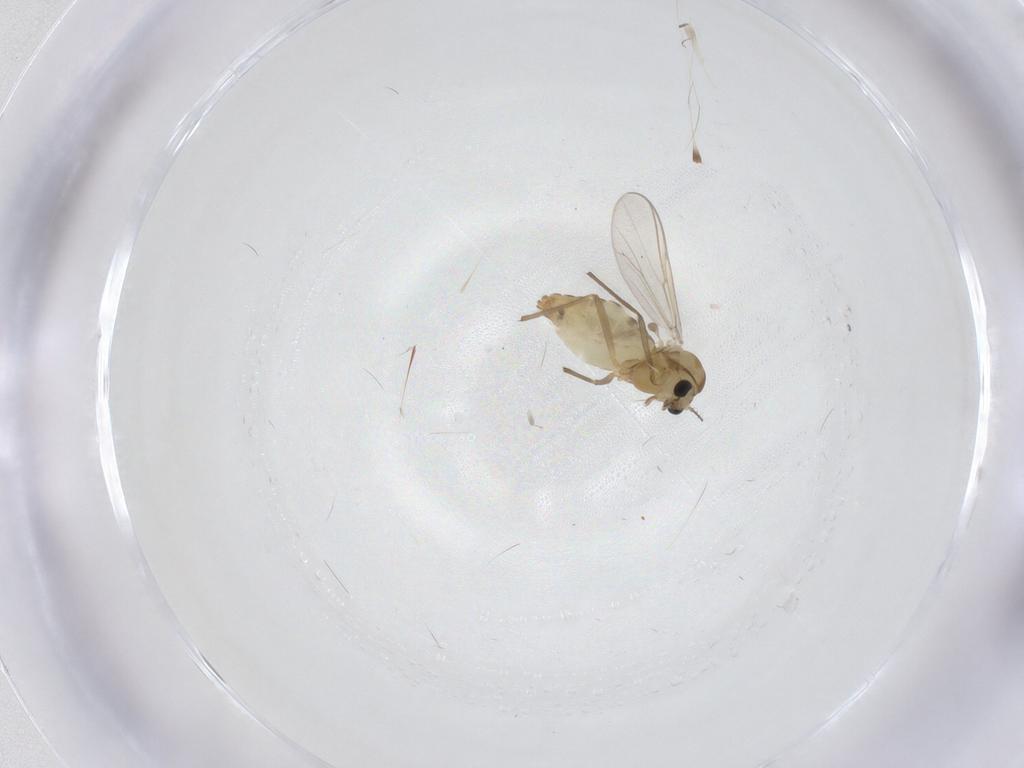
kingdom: Animalia
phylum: Arthropoda
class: Insecta
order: Diptera
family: Chironomidae
